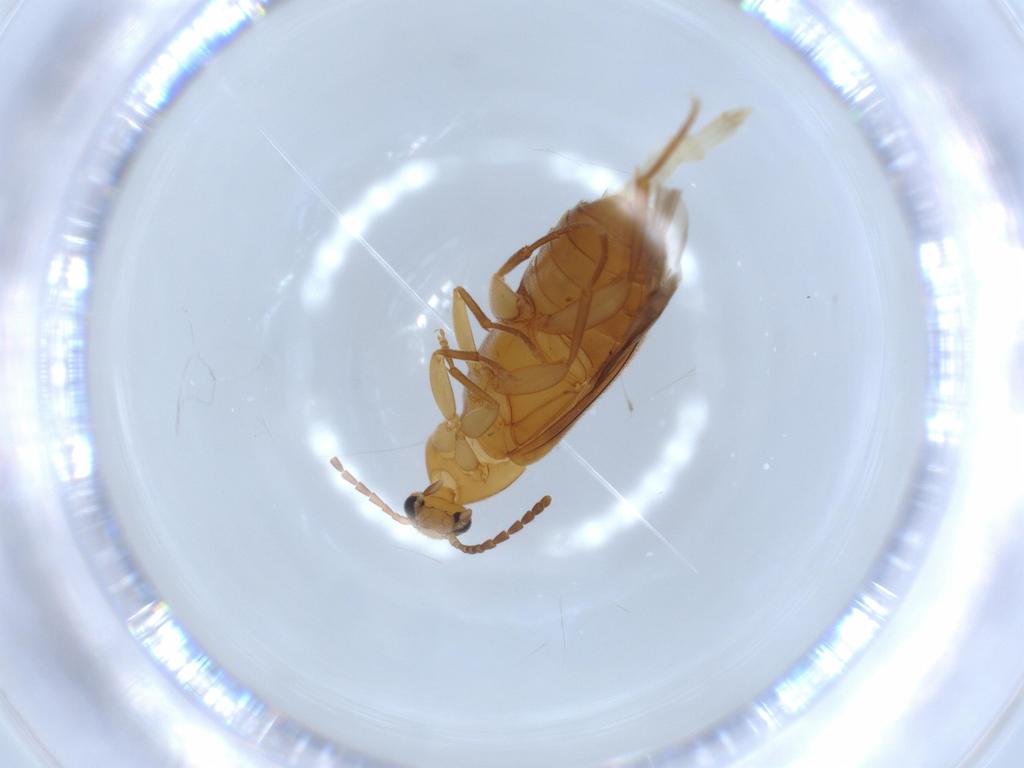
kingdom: Animalia
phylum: Arthropoda
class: Insecta
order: Coleoptera
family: Scraptiidae
